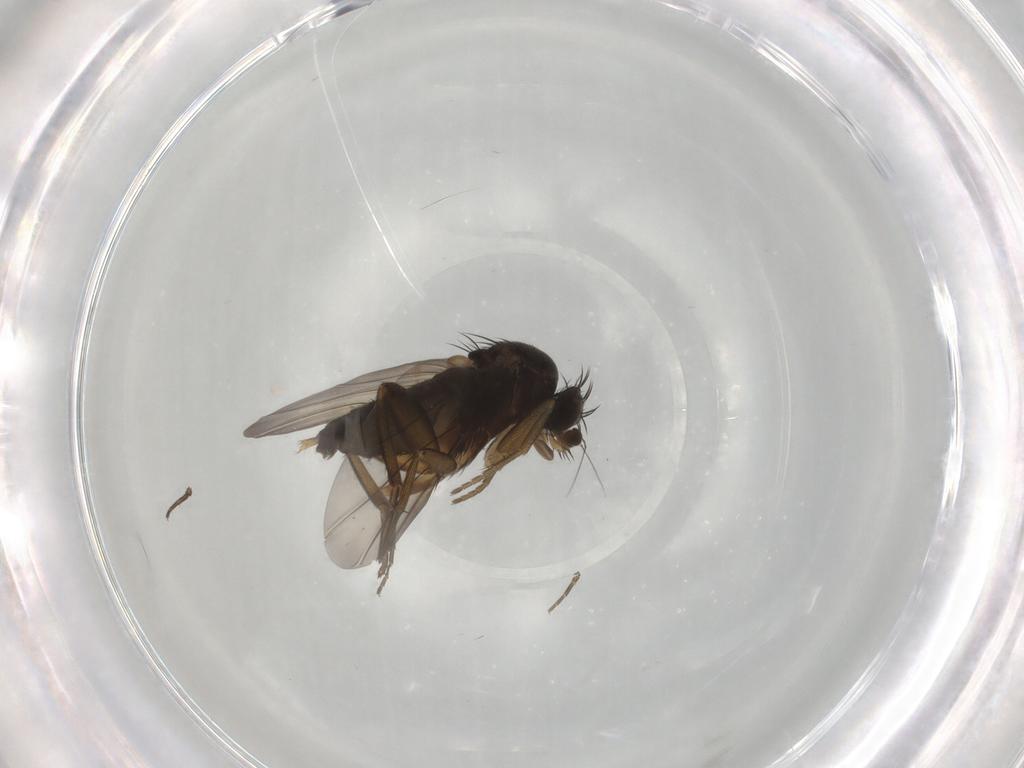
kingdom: Animalia
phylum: Arthropoda
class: Insecta
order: Diptera
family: Phoridae
